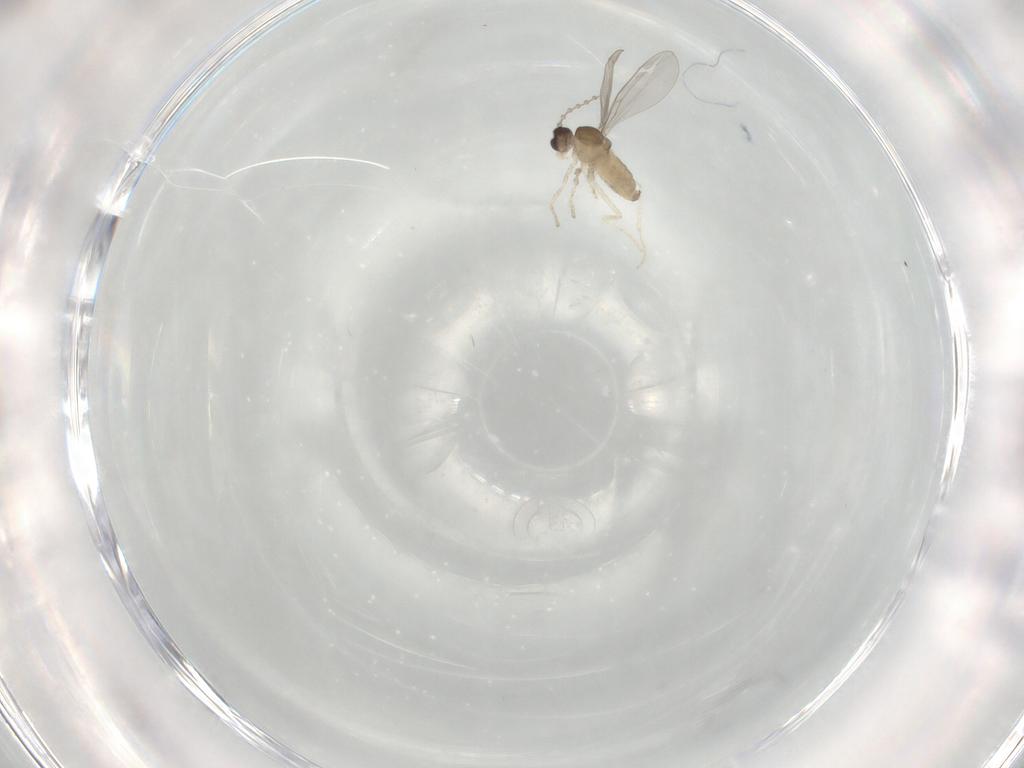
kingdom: Animalia
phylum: Arthropoda
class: Insecta
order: Diptera
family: Cecidomyiidae
